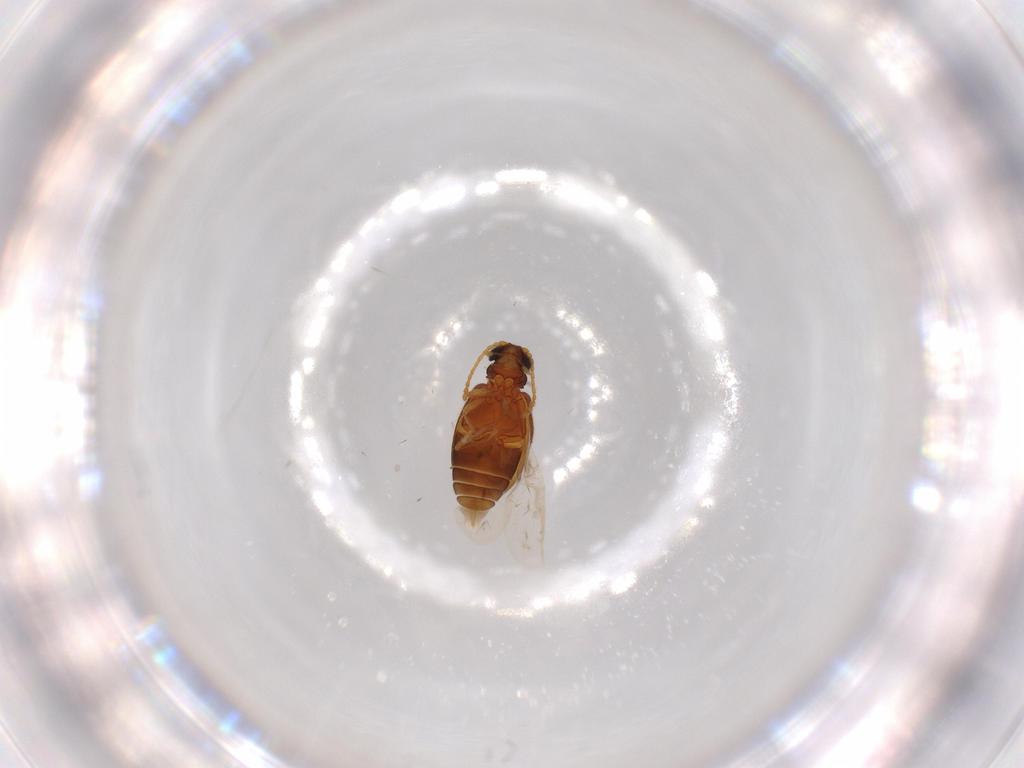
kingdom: Animalia
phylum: Arthropoda
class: Insecta
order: Coleoptera
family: Aderidae
